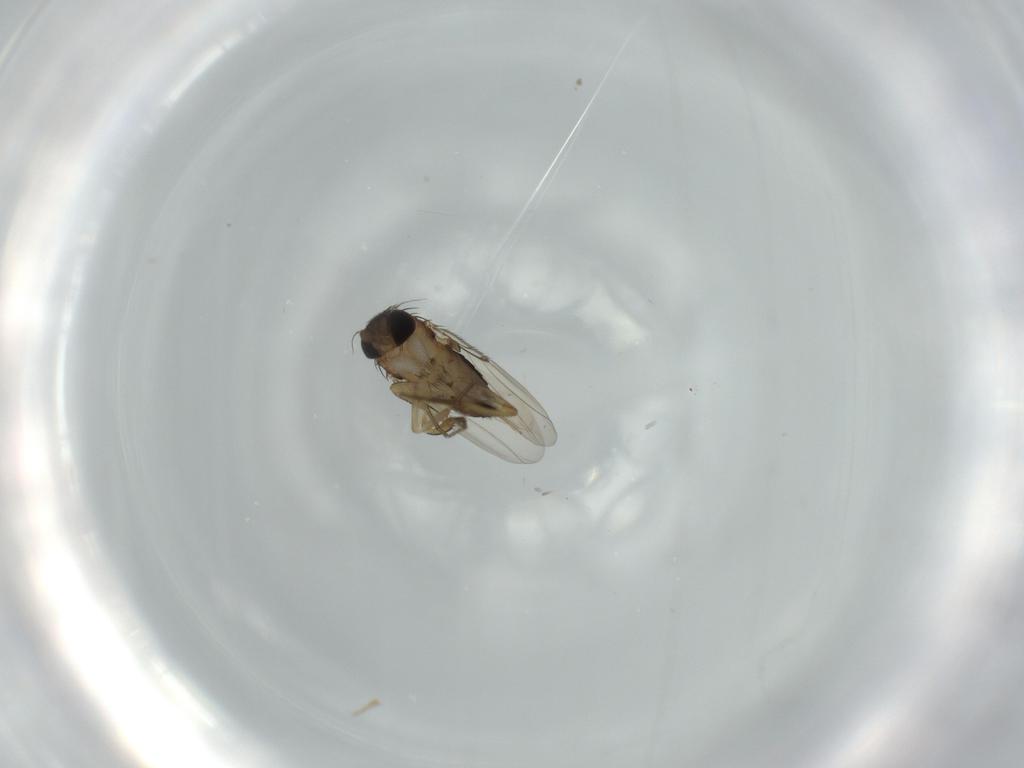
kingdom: Animalia
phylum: Arthropoda
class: Insecta
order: Diptera
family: Phoridae
